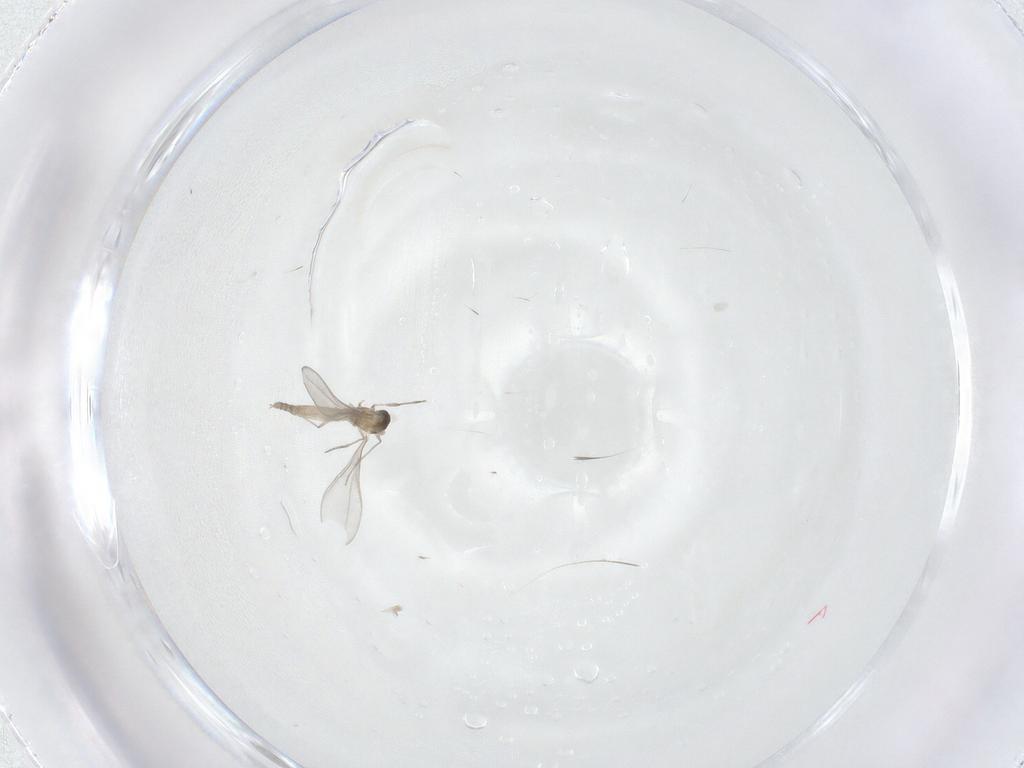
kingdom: Animalia
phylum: Arthropoda
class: Insecta
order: Diptera
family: Cecidomyiidae
